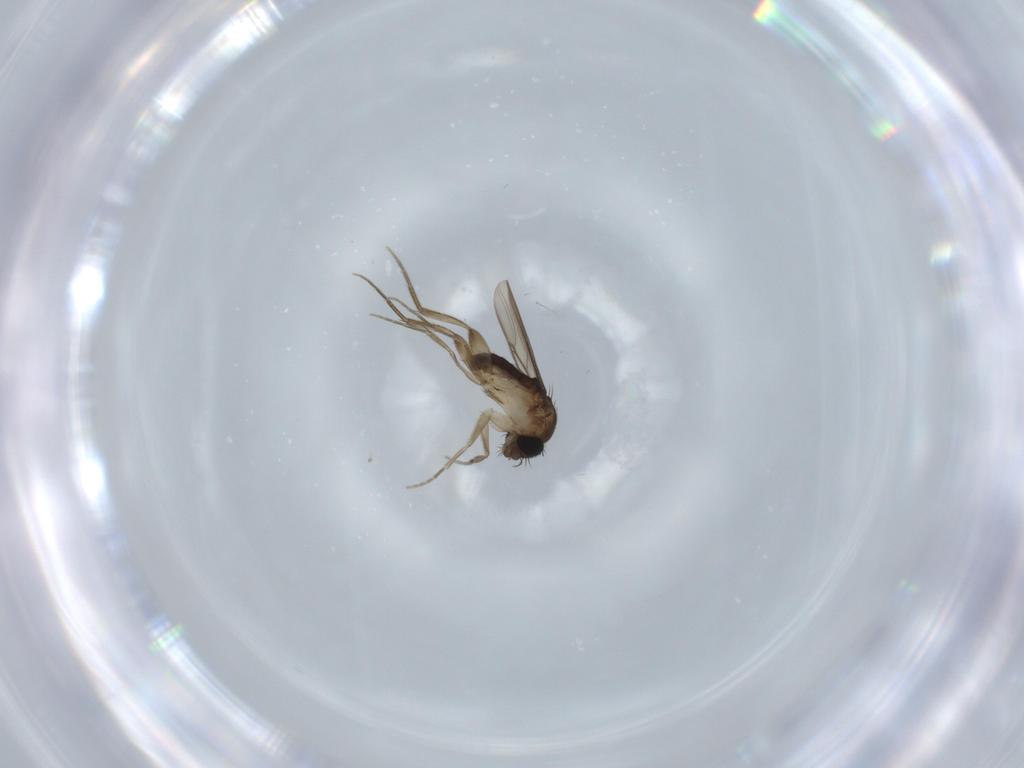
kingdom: Animalia
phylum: Arthropoda
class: Insecta
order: Diptera
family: Phoridae
